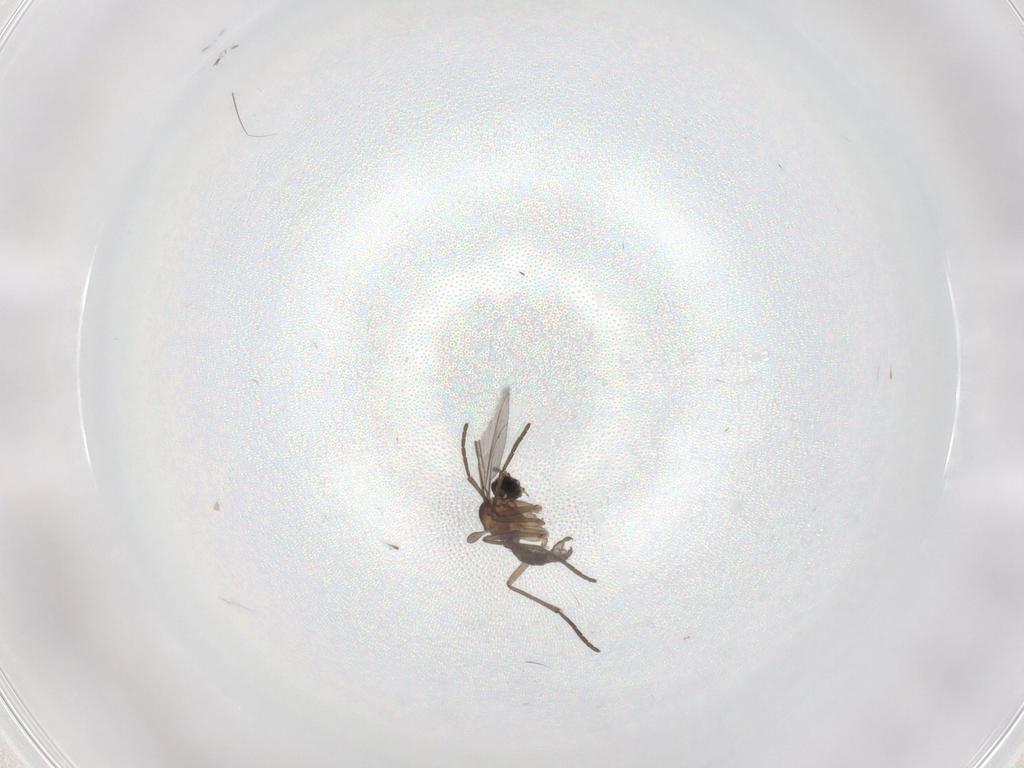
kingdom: Animalia
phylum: Arthropoda
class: Insecta
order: Diptera
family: Sciaridae
